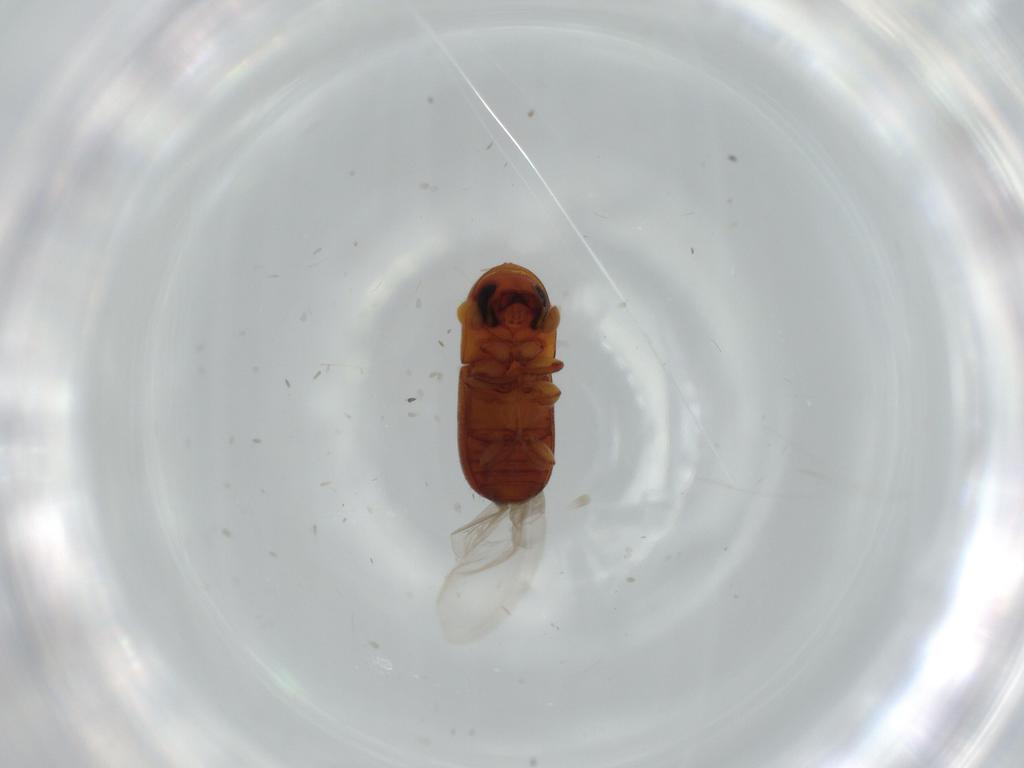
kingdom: Animalia
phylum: Arthropoda
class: Insecta
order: Coleoptera
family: Curculionidae
